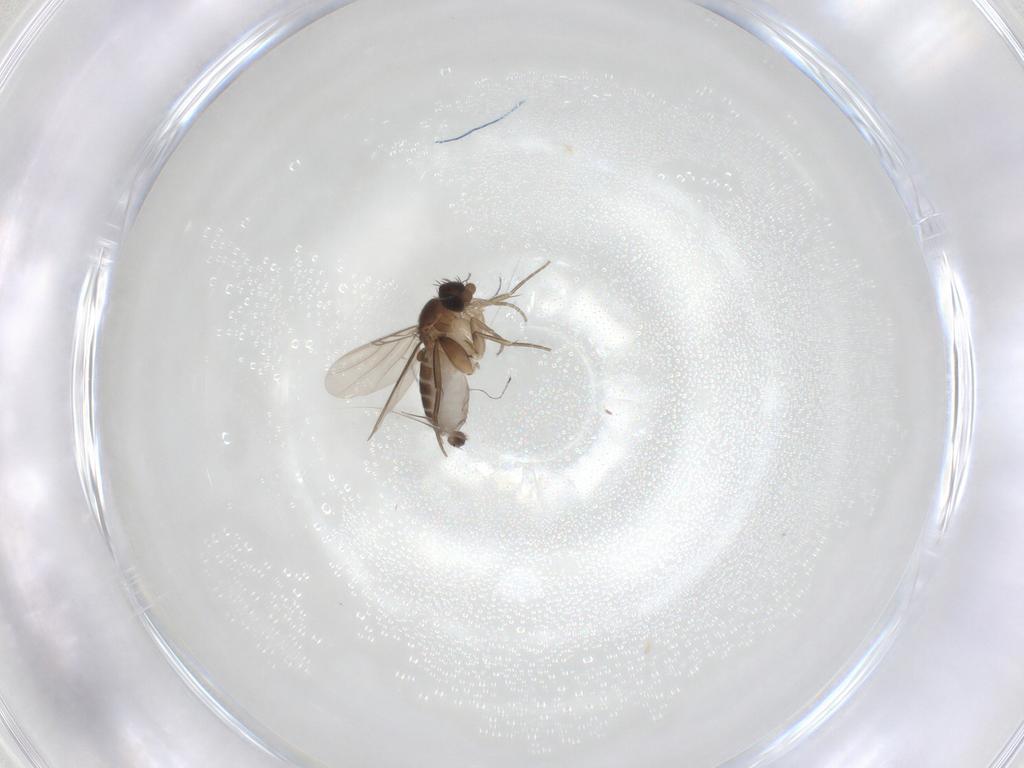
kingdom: Animalia
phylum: Arthropoda
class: Insecta
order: Diptera
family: Phoridae
